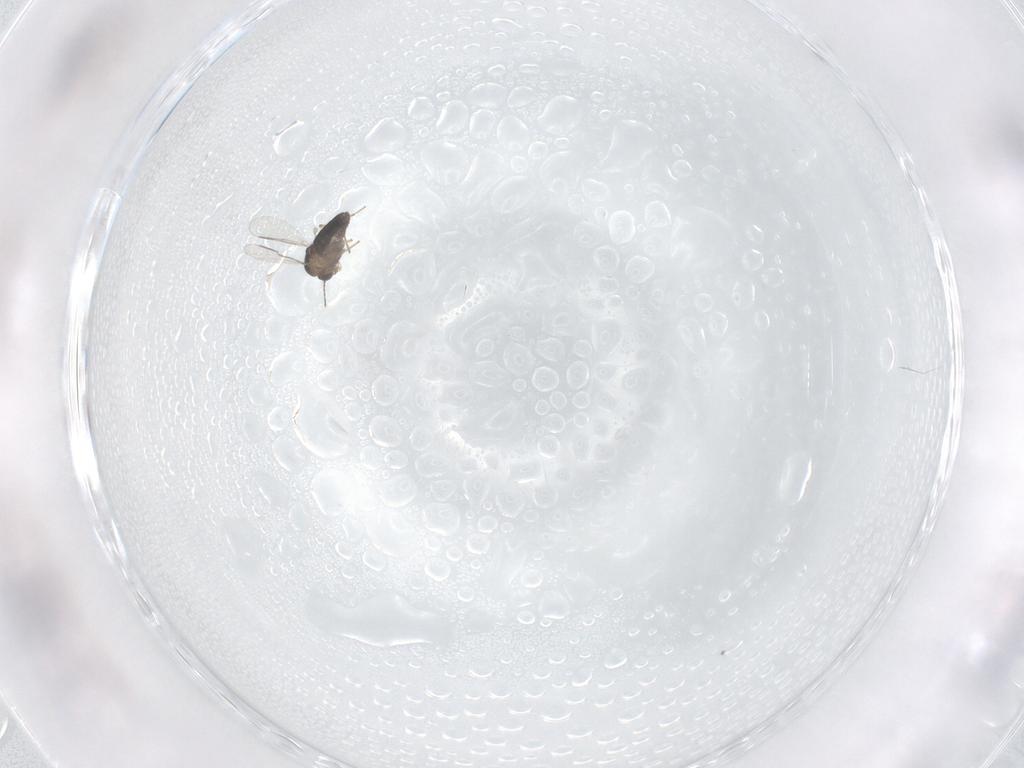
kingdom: Animalia
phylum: Arthropoda
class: Insecta
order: Diptera
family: Chironomidae
